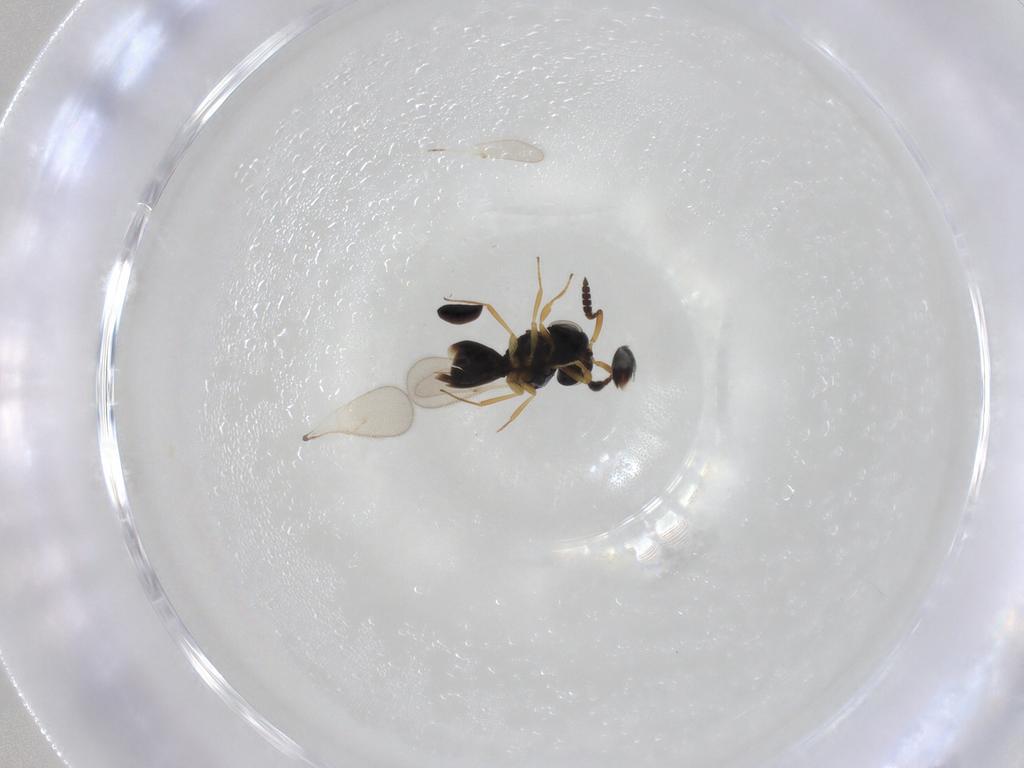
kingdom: Animalia
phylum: Arthropoda
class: Insecta
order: Hymenoptera
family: Scelionidae
